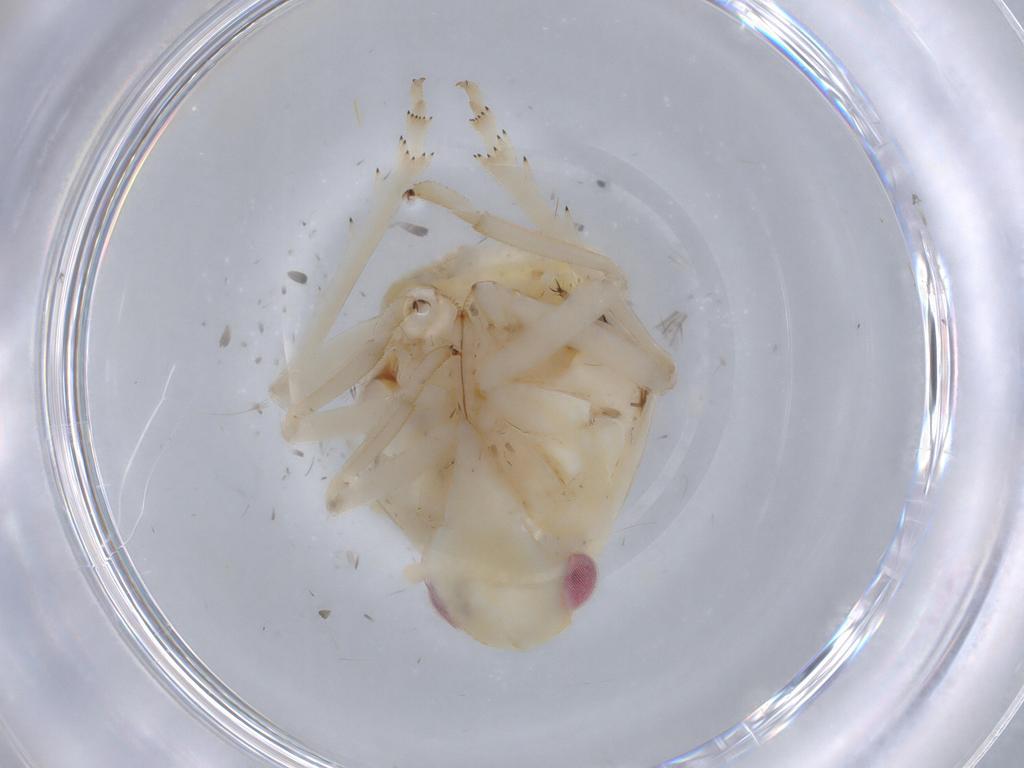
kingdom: Animalia
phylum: Arthropoda
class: Insecta
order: Hemiptera
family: Ricaniidae
